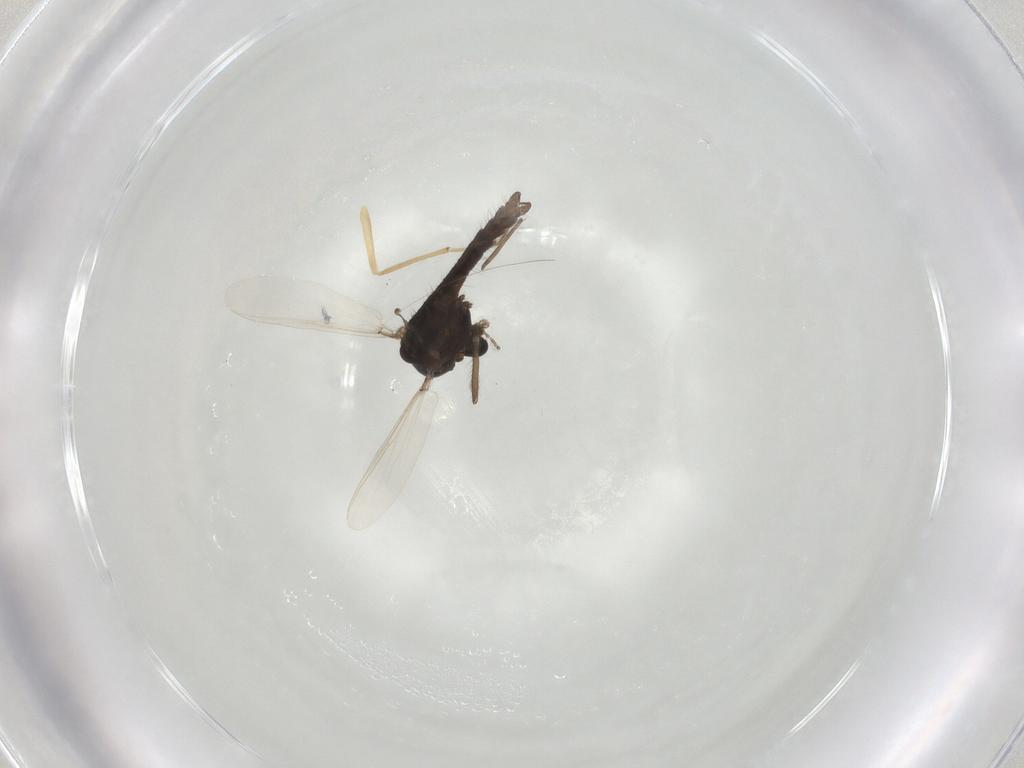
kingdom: Animalia
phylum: Arthropoda
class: Insecta
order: Diptera
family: Chironomidae
